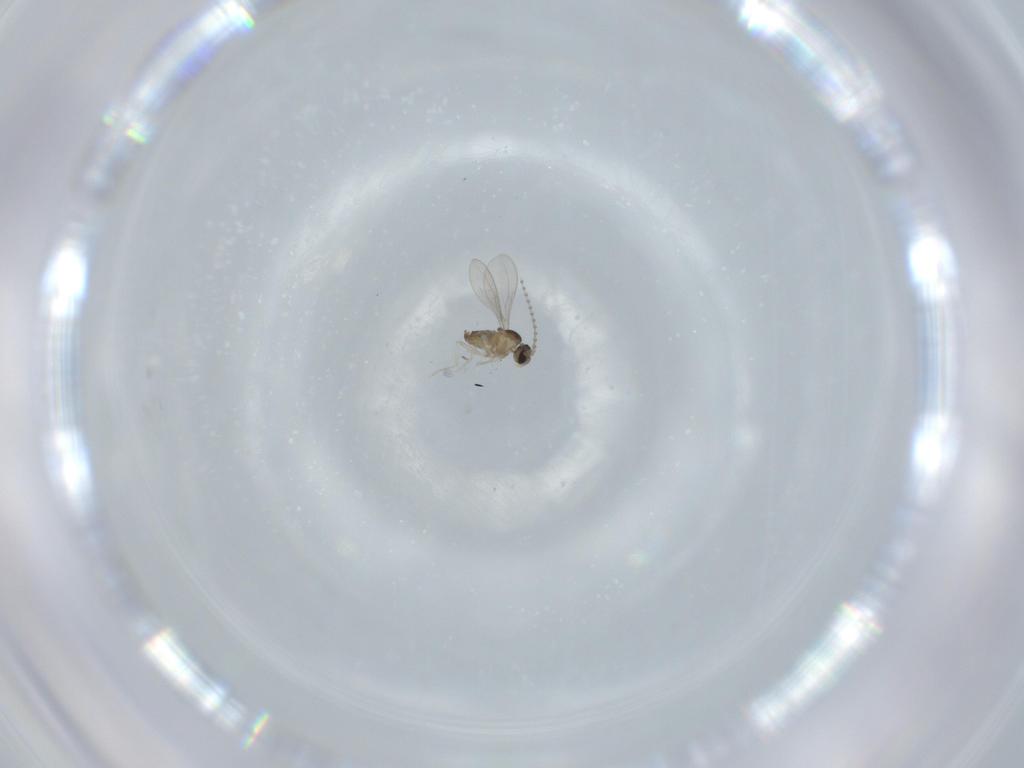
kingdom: Animalia
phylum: Arthropoda
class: Insecta
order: Diptera
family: Cecidomyiidae
